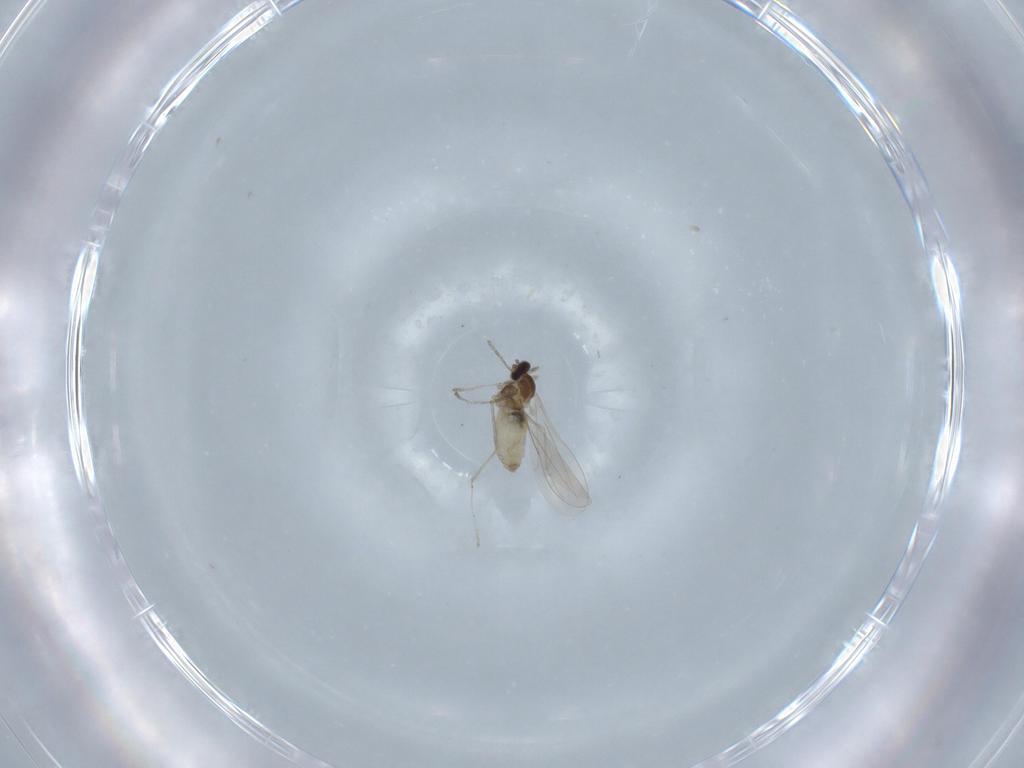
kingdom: Animalia
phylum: Arthropoda
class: Insecta
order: Diptera
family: Cecidomyiidae
